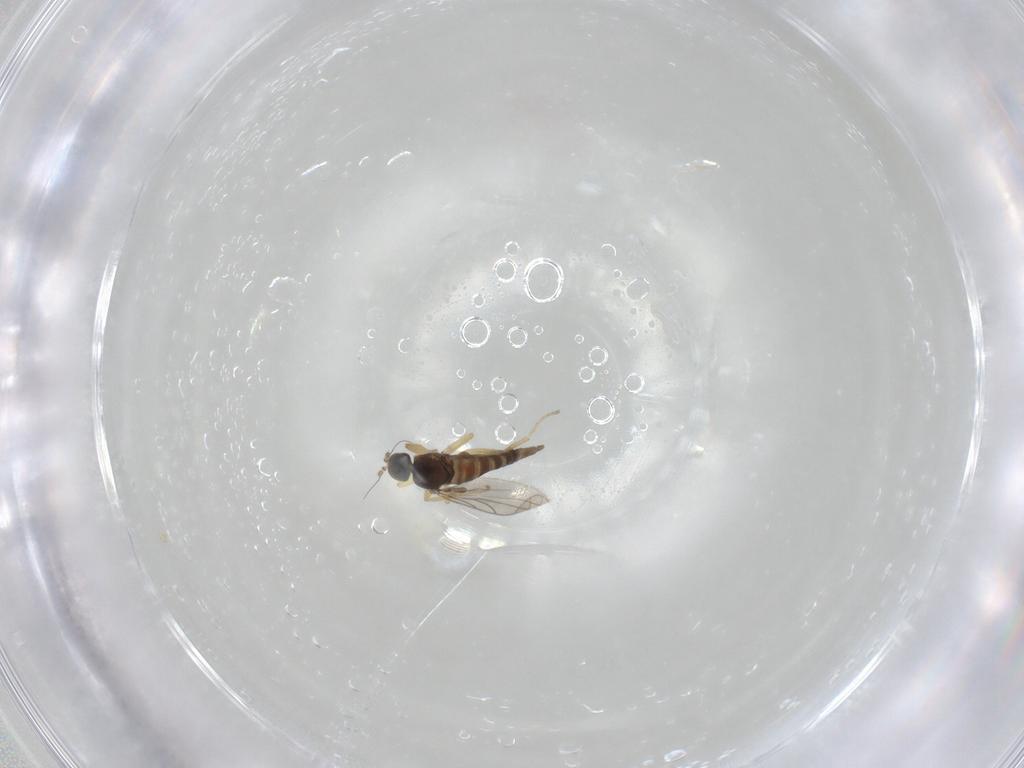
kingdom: Animalia
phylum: Arthropoda
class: Insecta
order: Diptera
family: Hybotidae
